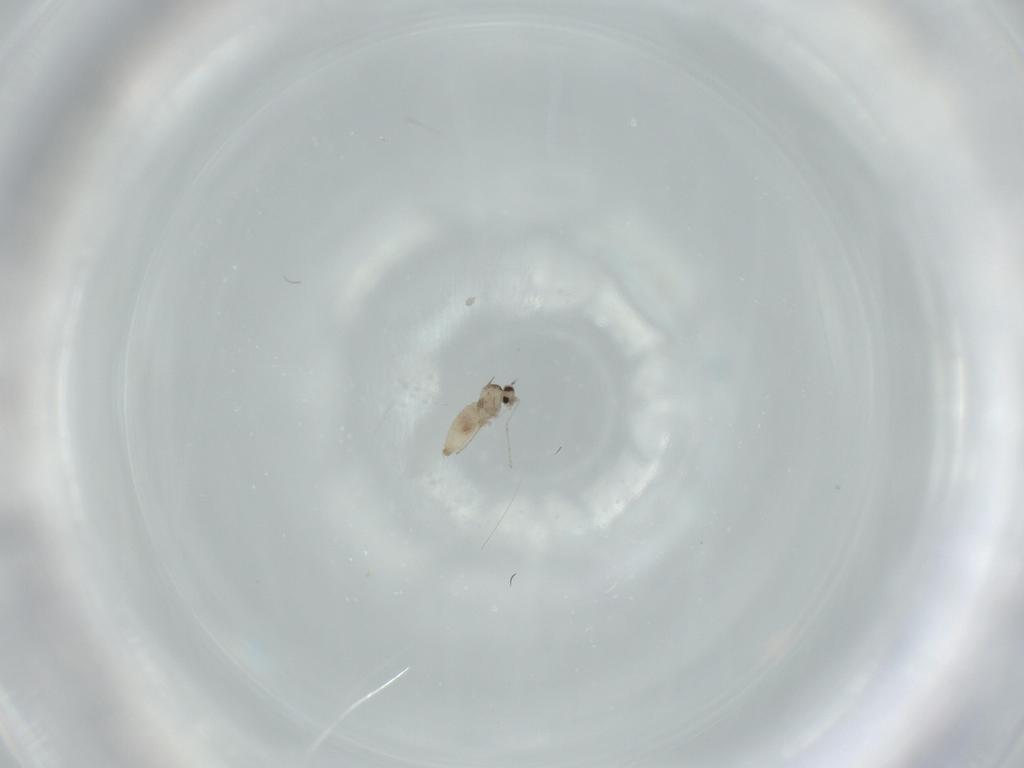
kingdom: Animalia
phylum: Arthropoda
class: Insecta
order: Diptera
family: Cecidomyiidae
